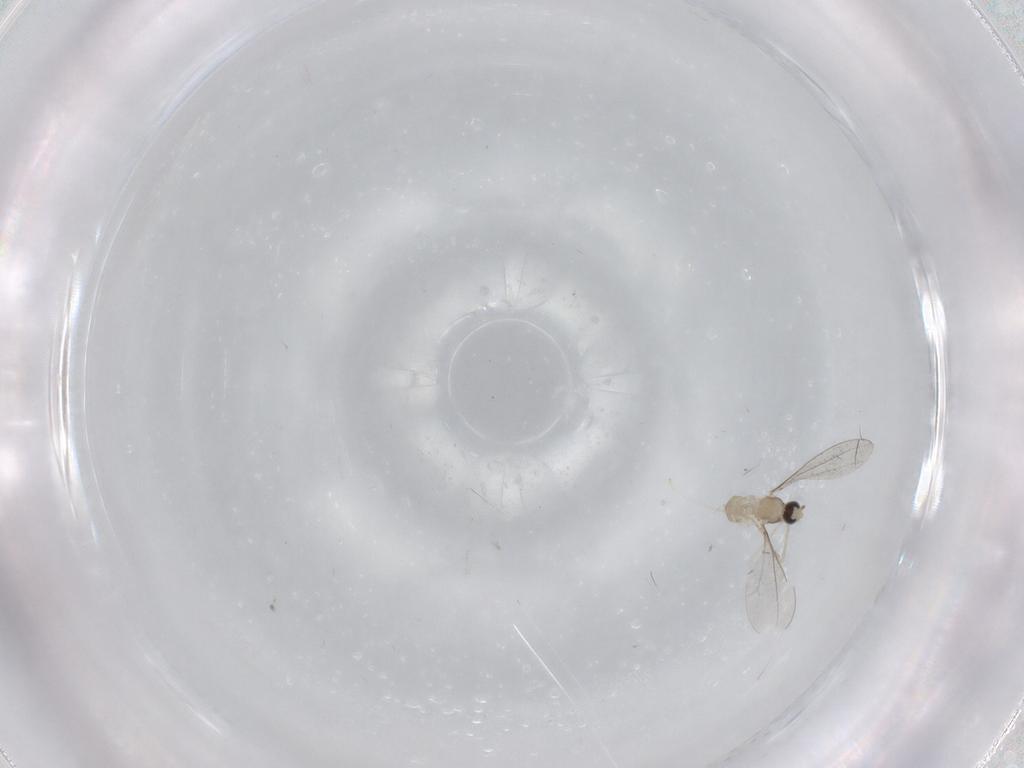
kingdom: Animalia
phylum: Arthropoda
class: Insecta
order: Diptera
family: Cecidomyiidae
